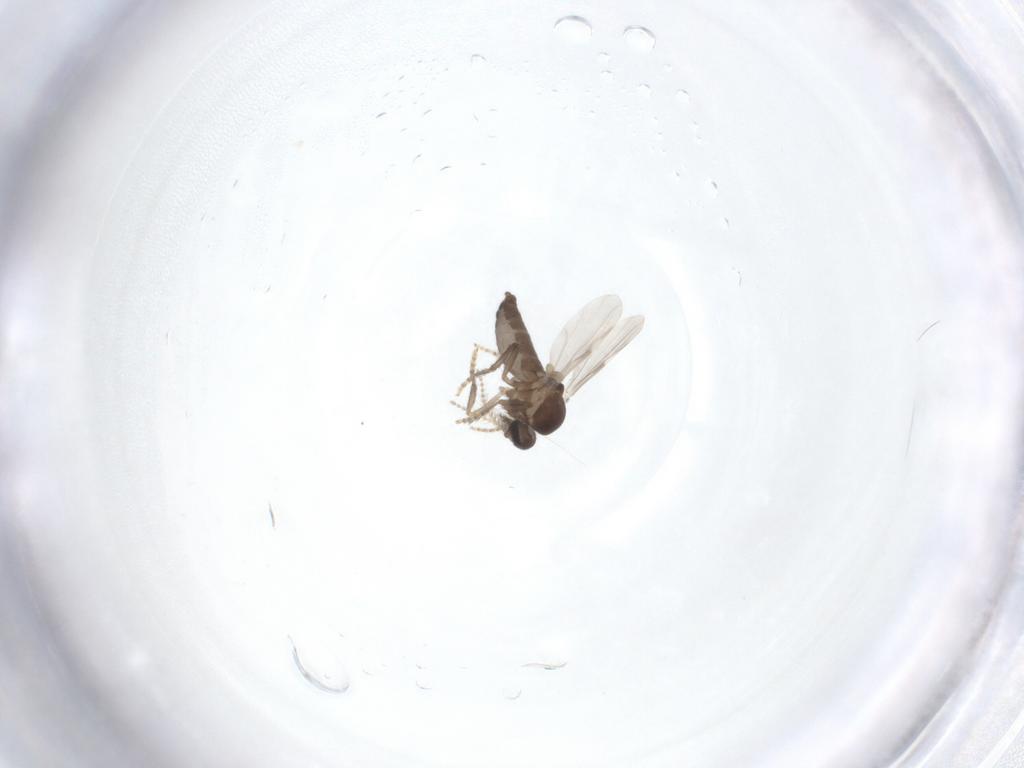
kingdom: Animalia
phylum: Arthropoda
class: Insecta
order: Diptera
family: Ceratopogonidae
